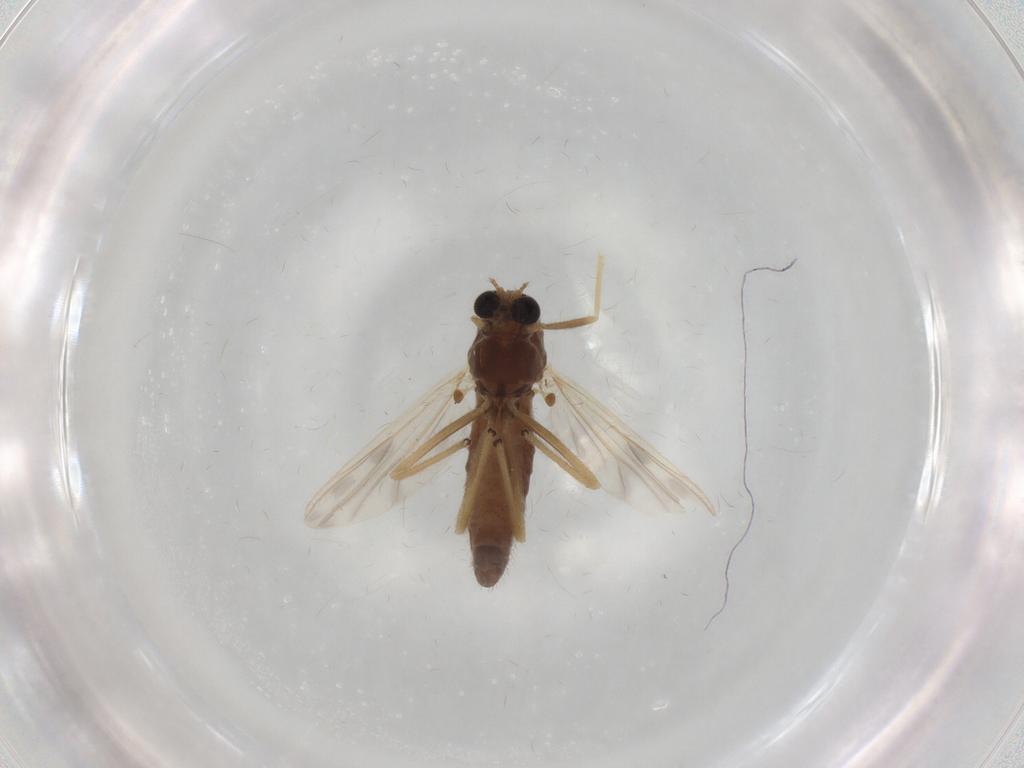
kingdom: Animalia
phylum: Arthropoda
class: Insecta
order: Diptera
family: Chironomidae
